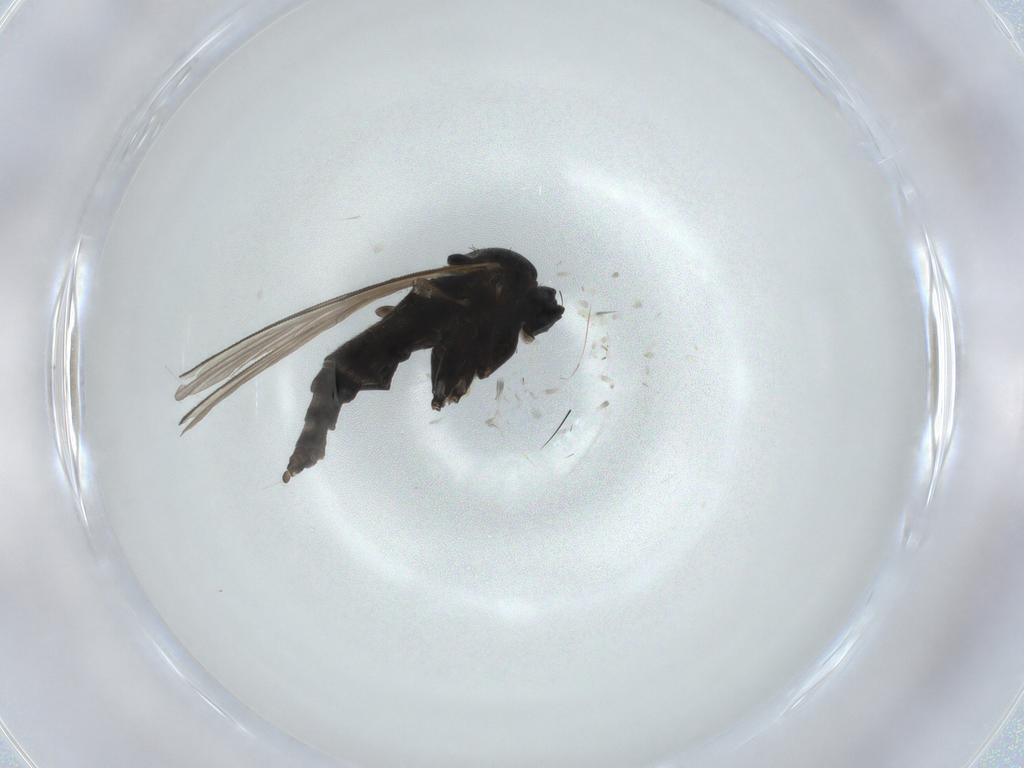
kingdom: Animalia
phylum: Arthropoda
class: Insecta
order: Diptera
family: Sciaridae
